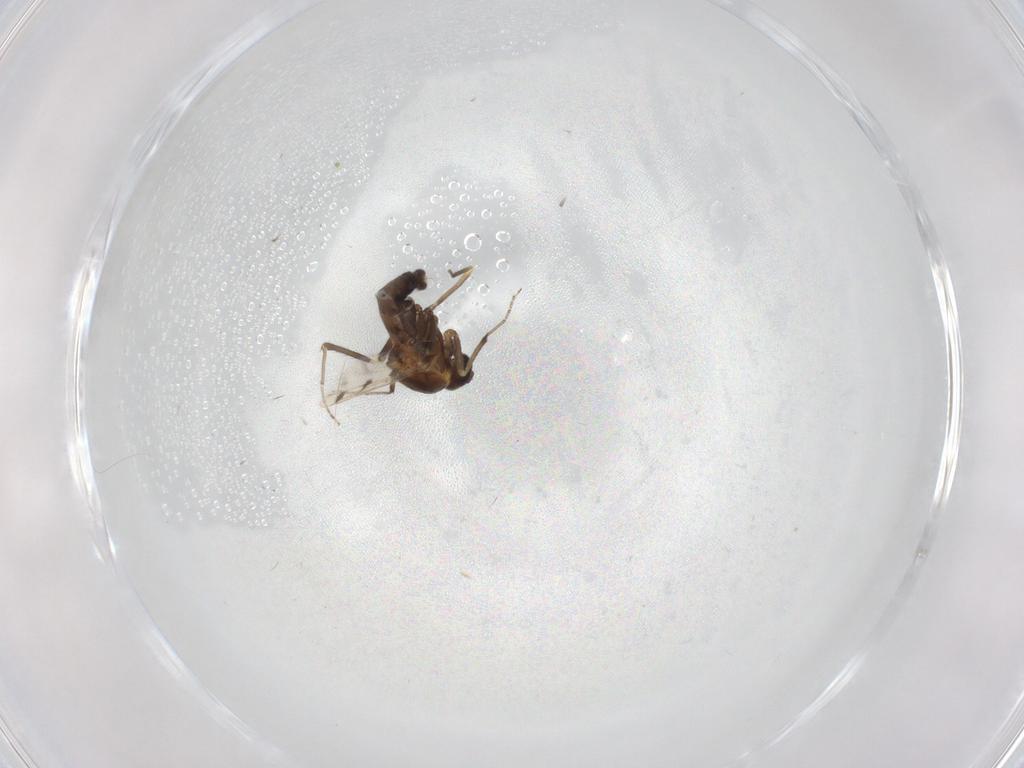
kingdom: Animalia
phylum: Arthropoda
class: Insecta
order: Diptera
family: Ceratopogonidae
